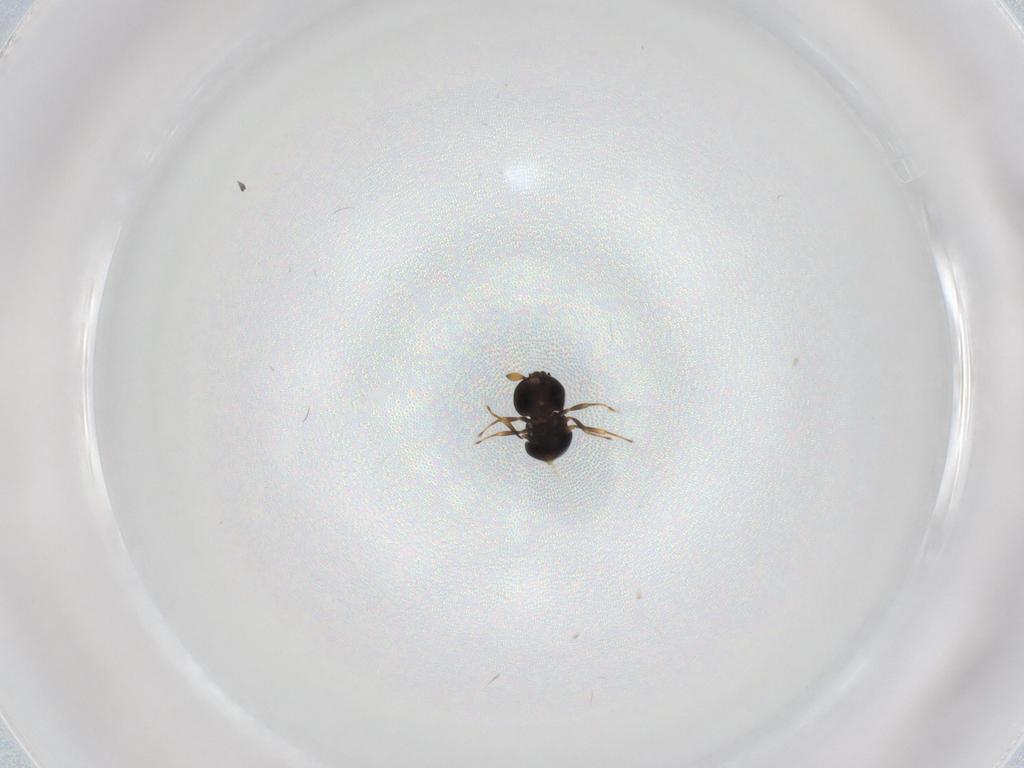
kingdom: Animalia
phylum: Arthropoda
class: Insecta
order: Hymenoptera
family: Scelionidae
